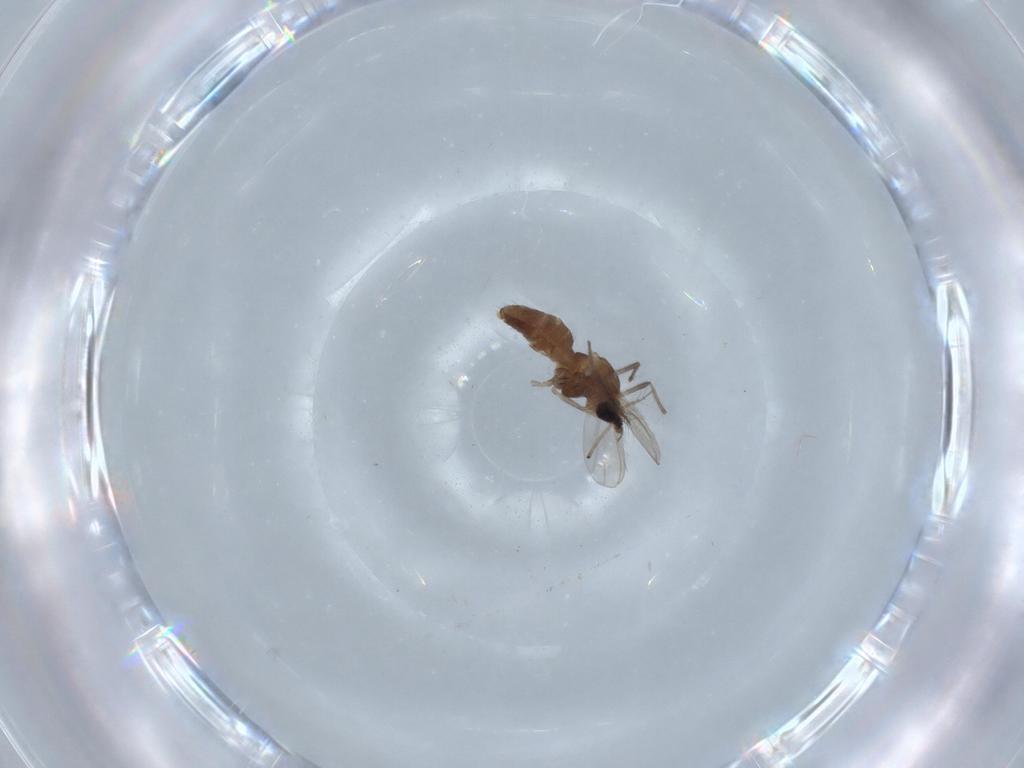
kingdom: Animalia
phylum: Arthropoda
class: Insecta
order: Diptera
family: Chironomidae
